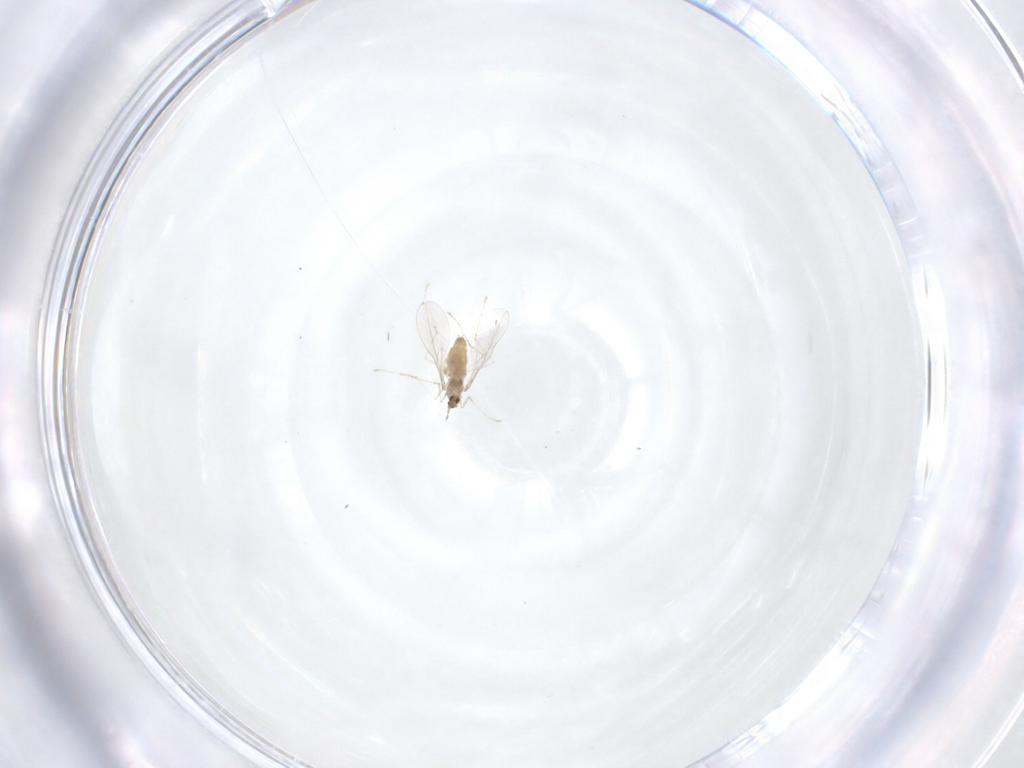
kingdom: Animalia
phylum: Arthropoda
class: Insecta
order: Diptera
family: Cecidomyiidae
